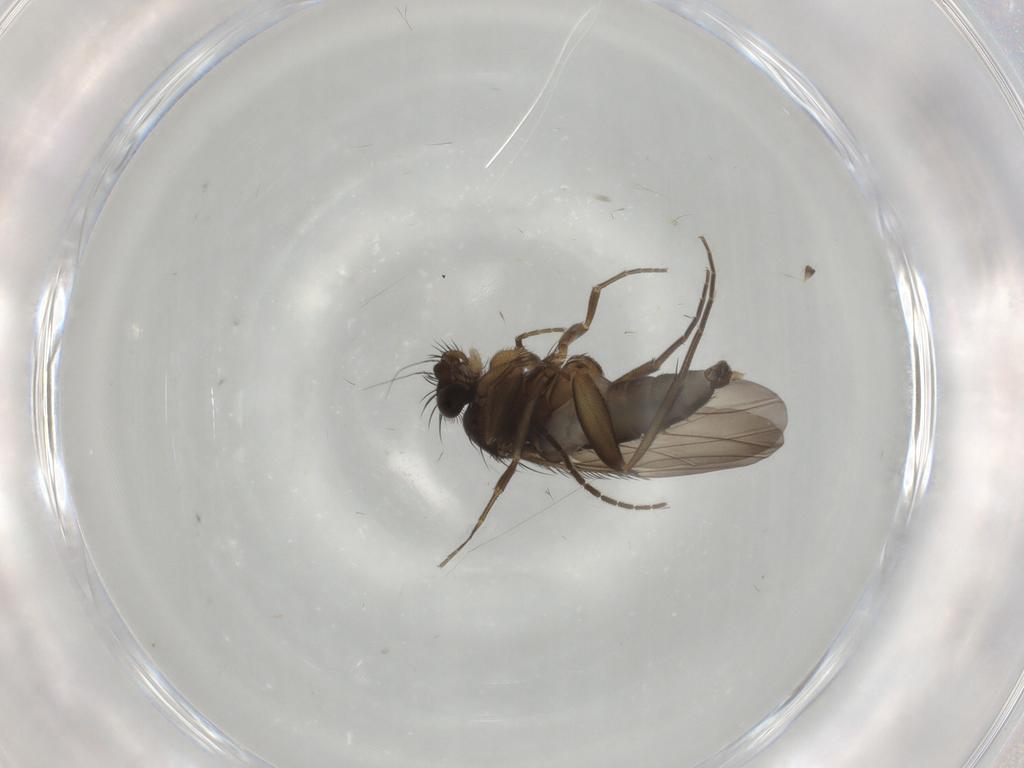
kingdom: Animalia
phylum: Arthropoda
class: Insecta
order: Diptera
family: Phoridae
